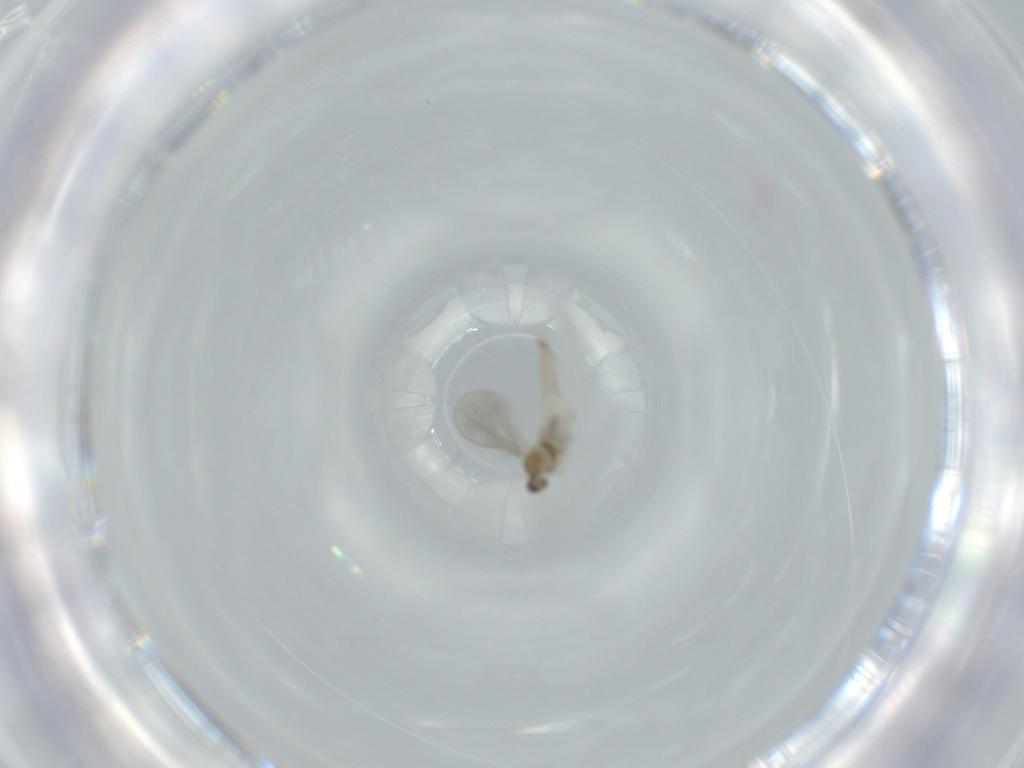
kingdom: Animalia
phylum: Arthropoda
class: Insecta
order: Diptera
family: Cecidomyiidae
